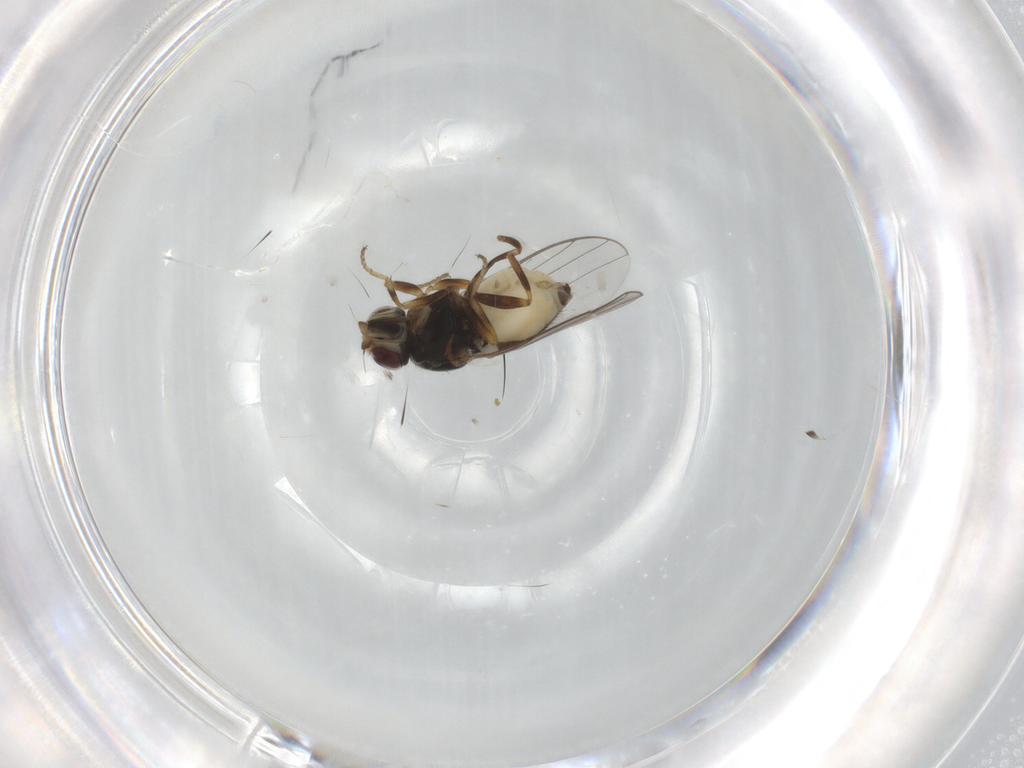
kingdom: Animalia
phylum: Arthropoda
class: Insecta
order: Diptera
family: Chloropidae
